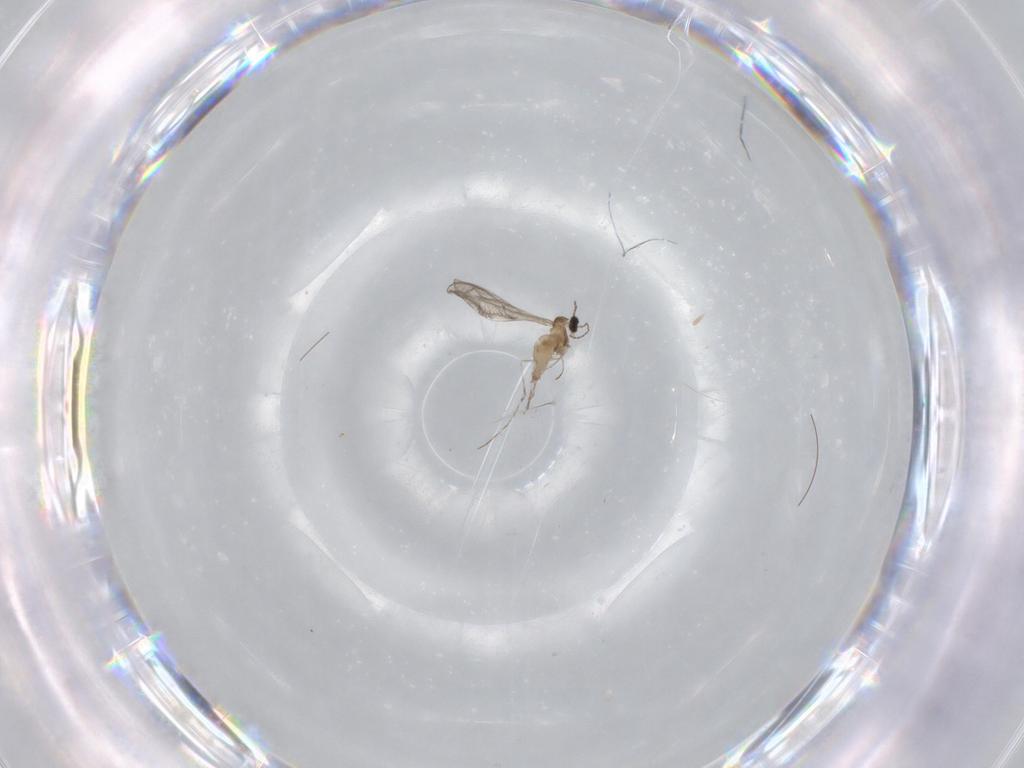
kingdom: Animalia
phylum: Arthropoda
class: Insecta
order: Diptera
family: Cecidomyiidae
